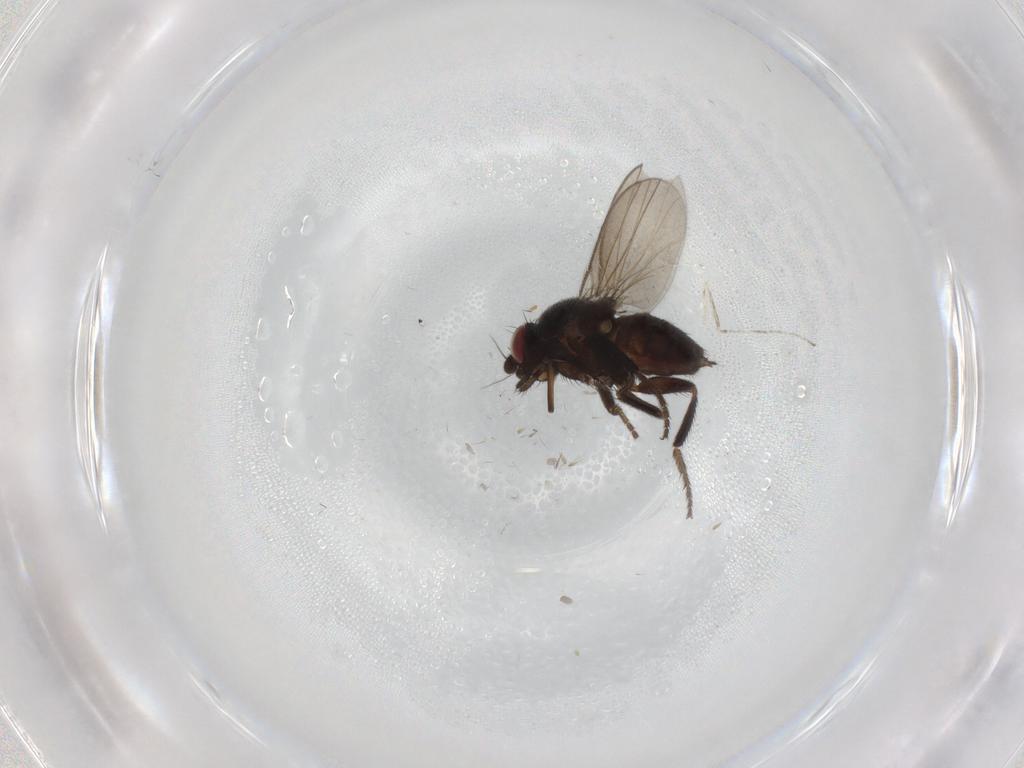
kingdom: Animalia
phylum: Arthropoda
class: Insecta
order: Diptera
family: Milichiidae
